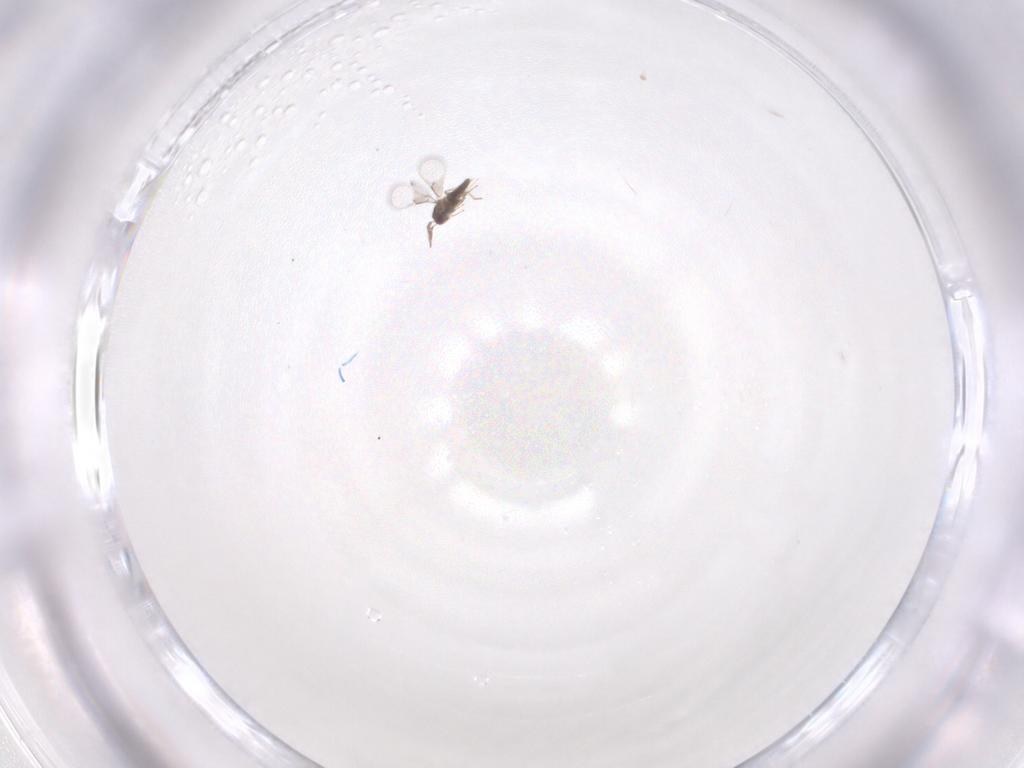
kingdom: Animalia
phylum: Arthropoda
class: Insecta
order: Hymenoptera
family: Trichogrammatidae
